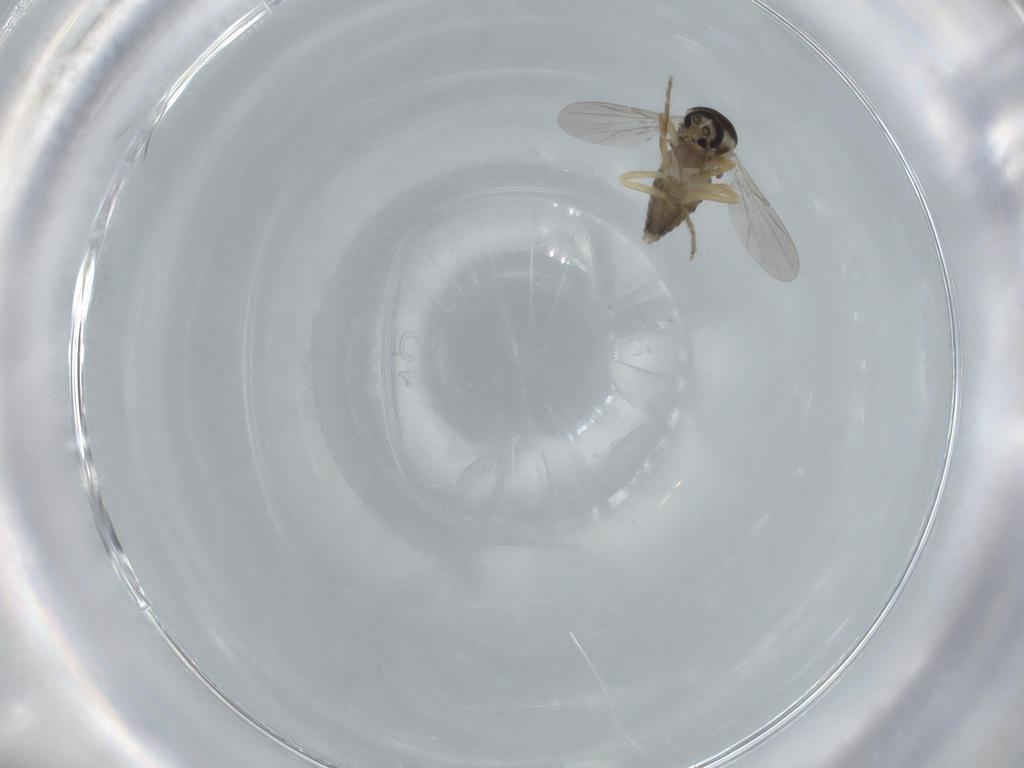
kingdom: Animalia
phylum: Arthropoda
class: Insecta
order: Diptera
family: Ceratopogonidae
